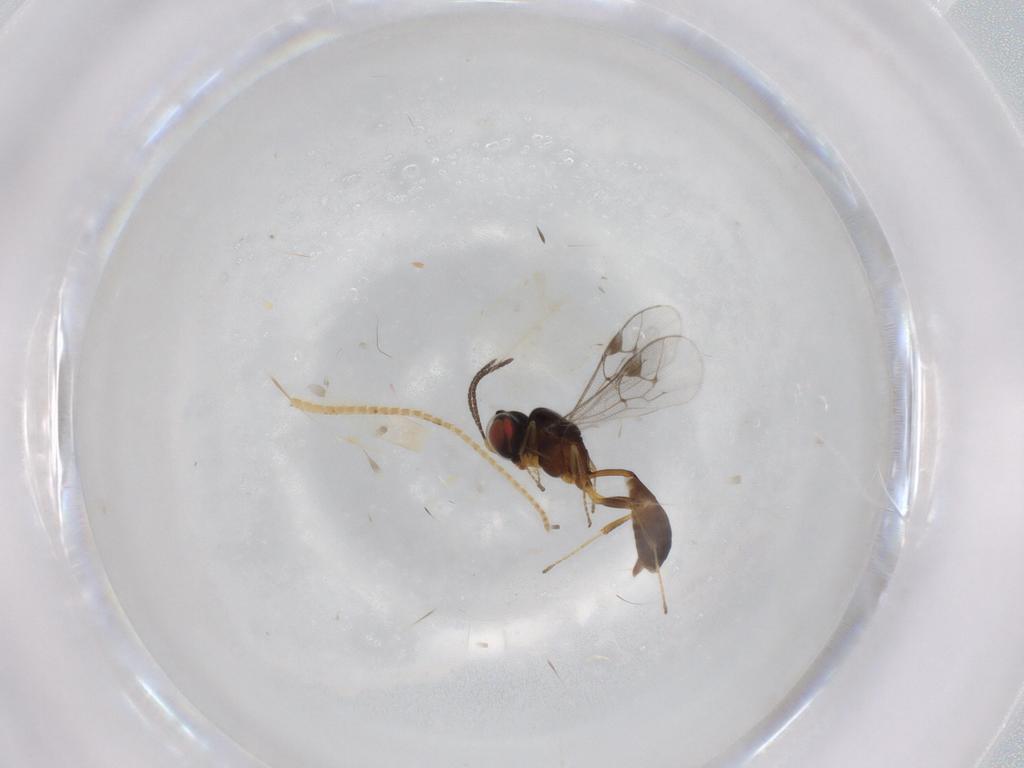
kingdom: Animalia
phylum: Arthropoda
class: Insecta
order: Hymenoptera
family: Ichneumonidae
